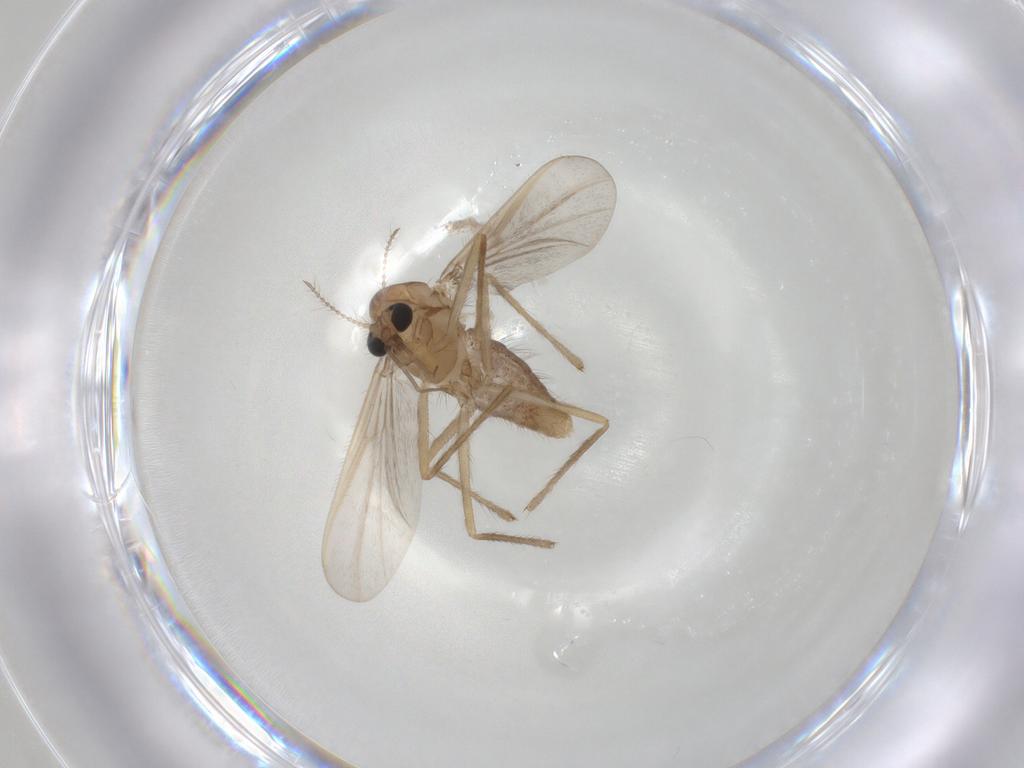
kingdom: Animalia
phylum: Arthropoda
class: Insecta
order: Diptera
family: Chironomidae
